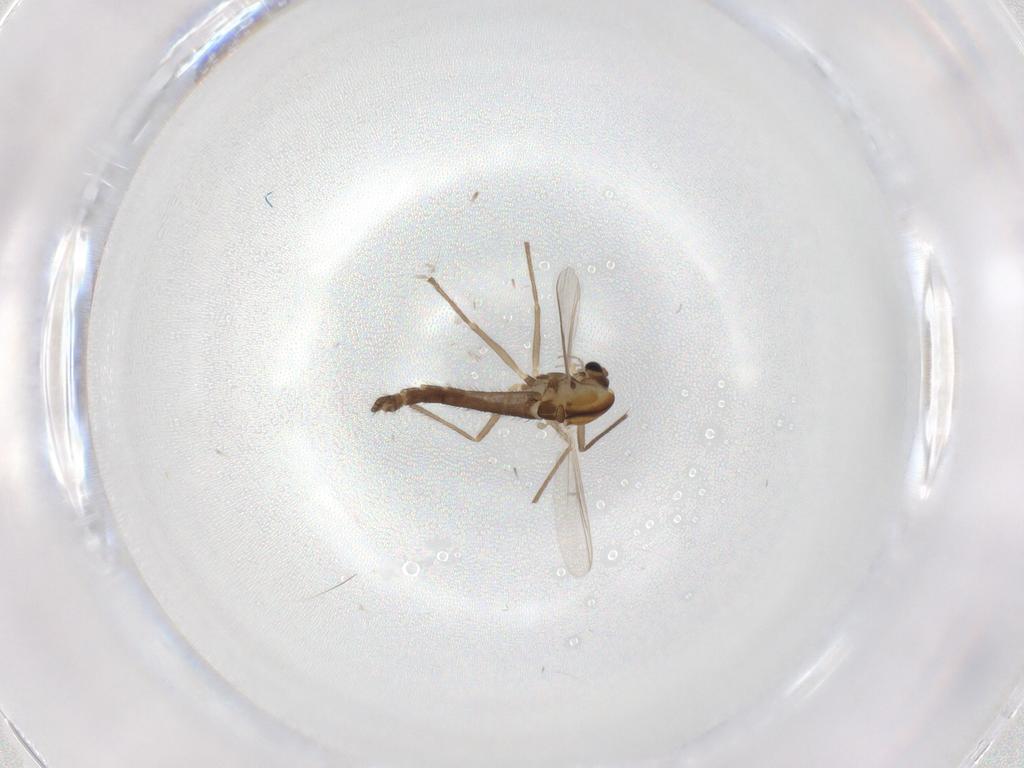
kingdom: Animalia
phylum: Arthropoda
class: Insecta
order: Diptera
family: Chironomidae
